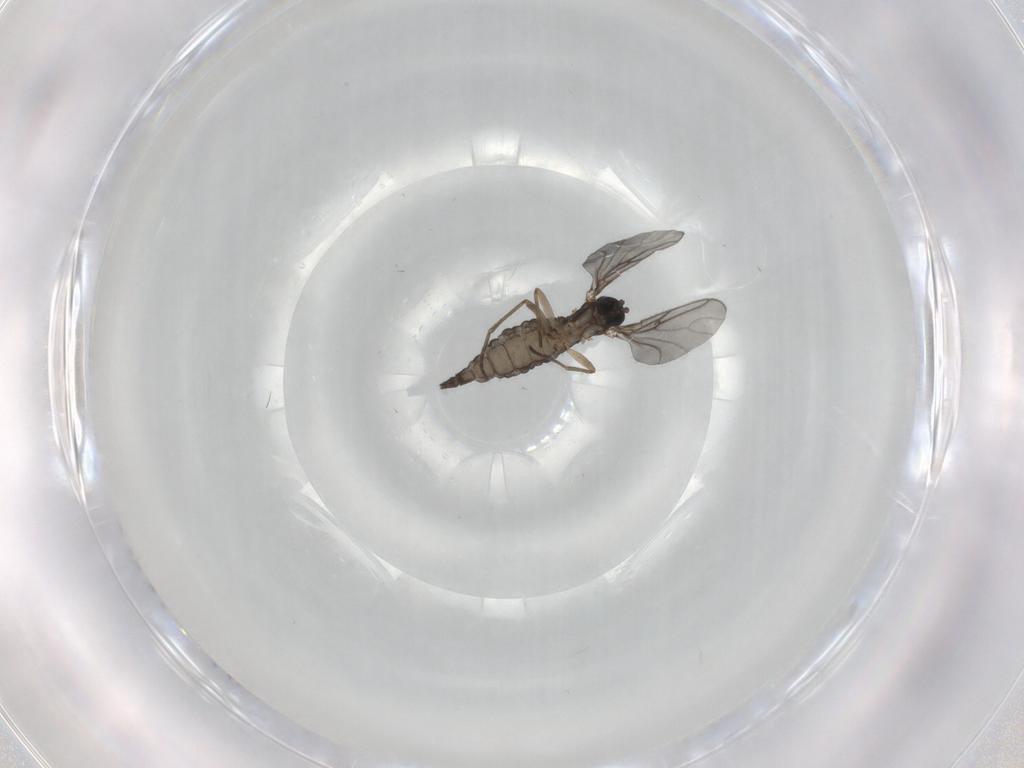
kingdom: Animalia
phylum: Arthropoda
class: Insecta
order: Diptera
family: Sciaridae
